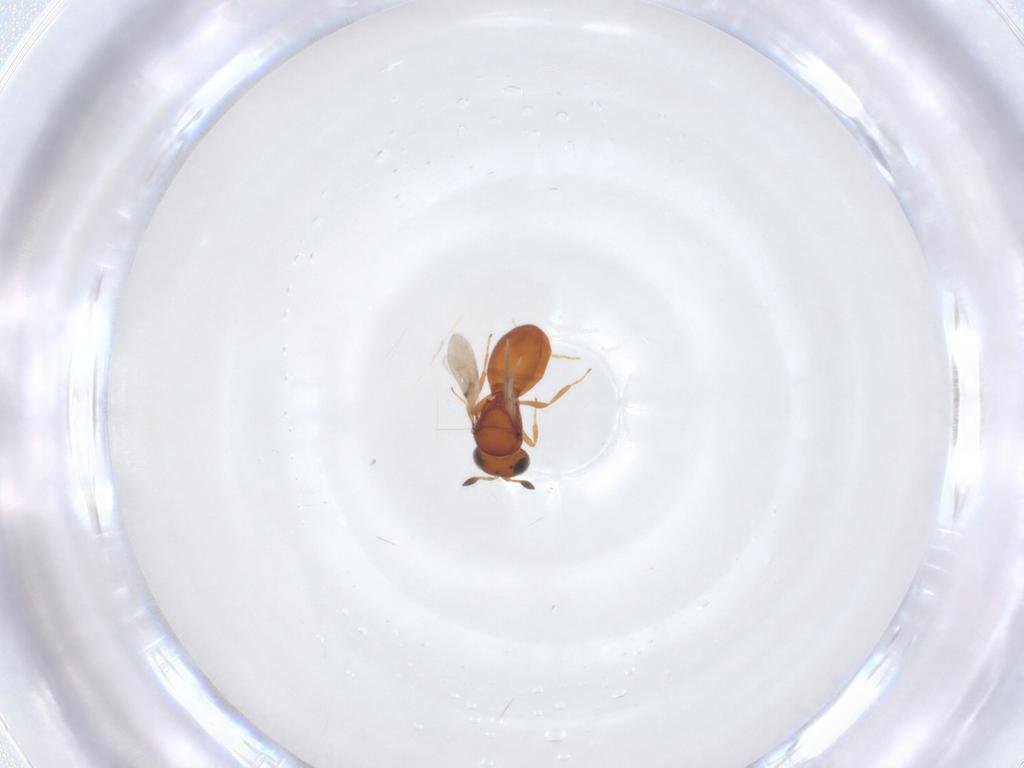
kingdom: Animalia
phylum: Arthropoda
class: Insecta
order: Hymenoptera
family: Scelionidae
